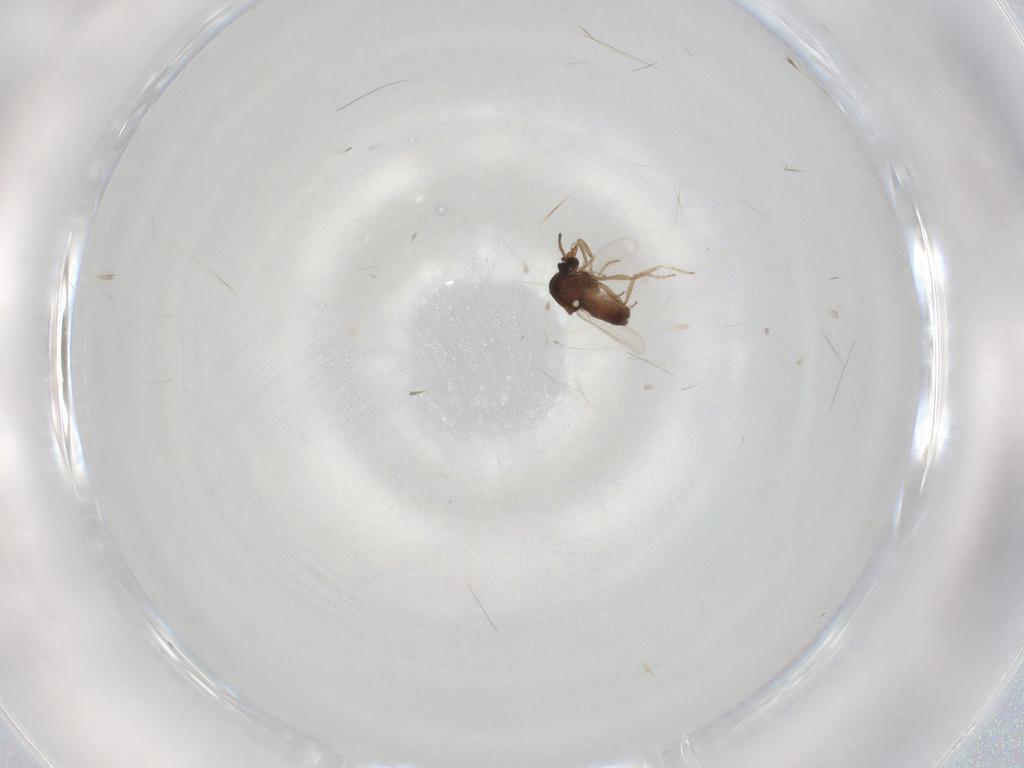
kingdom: Animalia
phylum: Arthropoda
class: Insecta
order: Diptera
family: Ceratopogonidae
